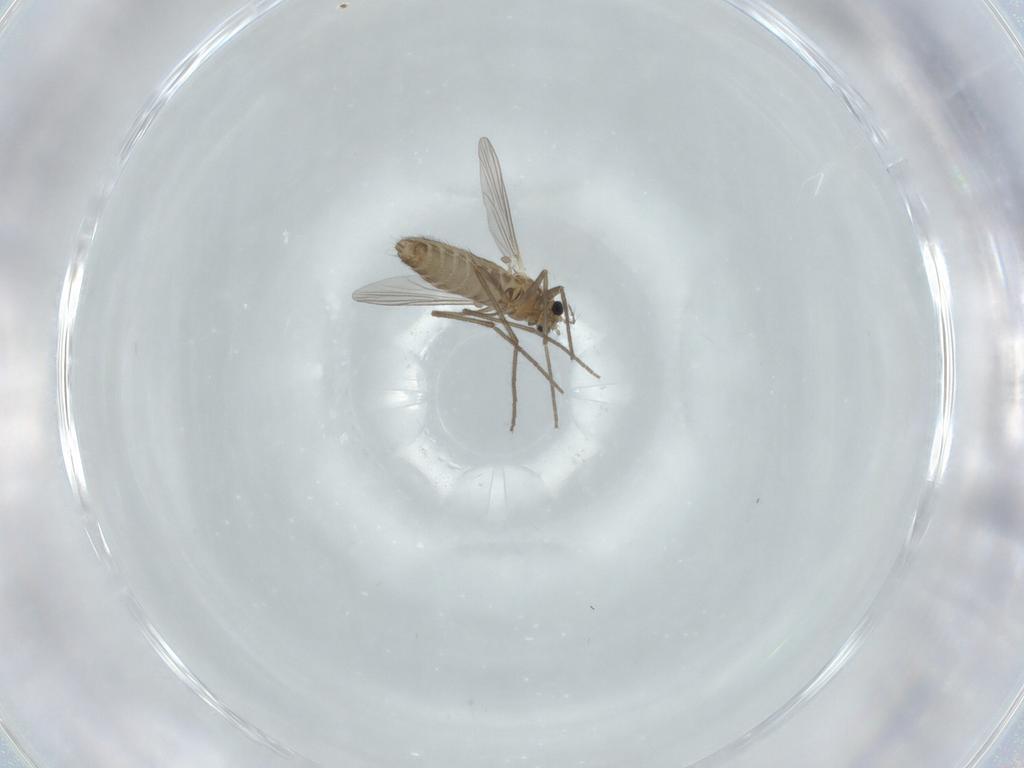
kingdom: Animalia
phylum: Arthropoda
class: Insecta
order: Diptera
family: Chironomidae
